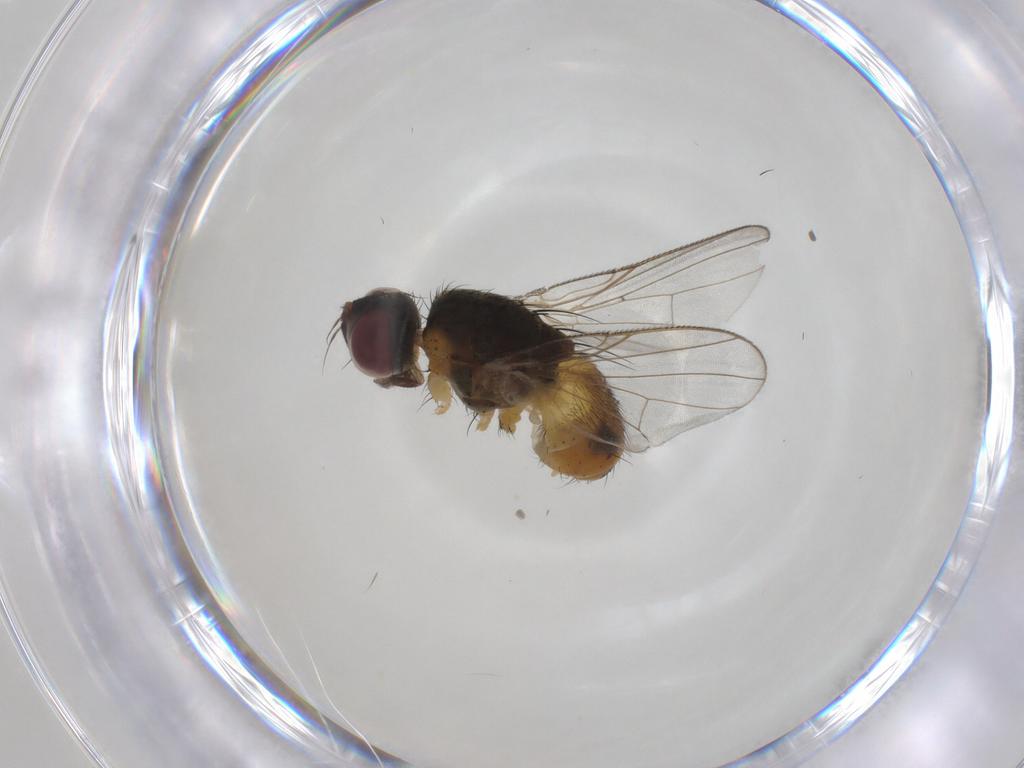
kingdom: Animalia
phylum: Arthropoda
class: Insecta
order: Diptera
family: Muscidae
